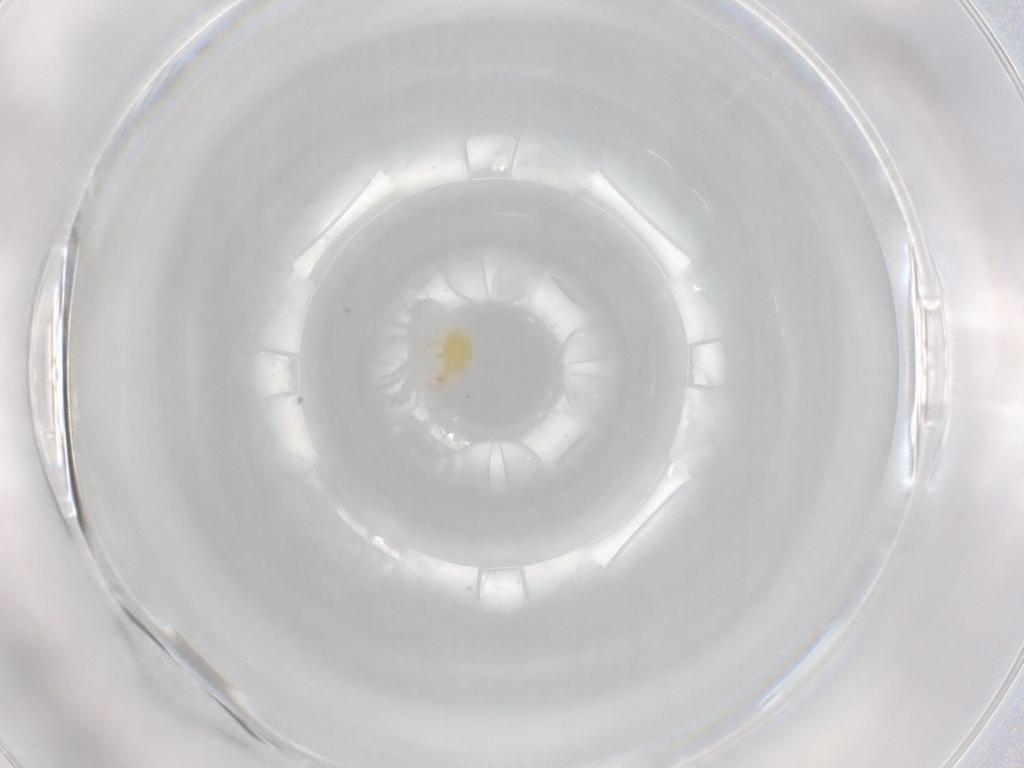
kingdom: Animalia
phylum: Arthropoda
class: Arachnida
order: Trombidiformes
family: Stigmaeidae
